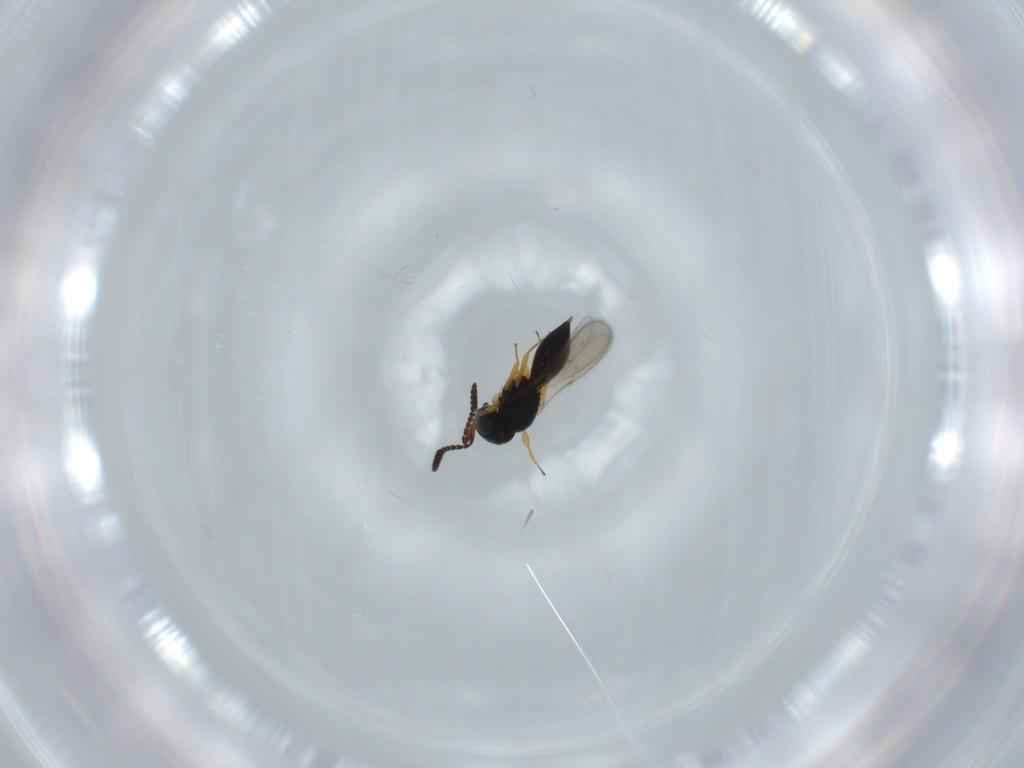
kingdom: Animalia
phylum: Arthropoda
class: Insecta
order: Hymenoptera
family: Scelionidae
